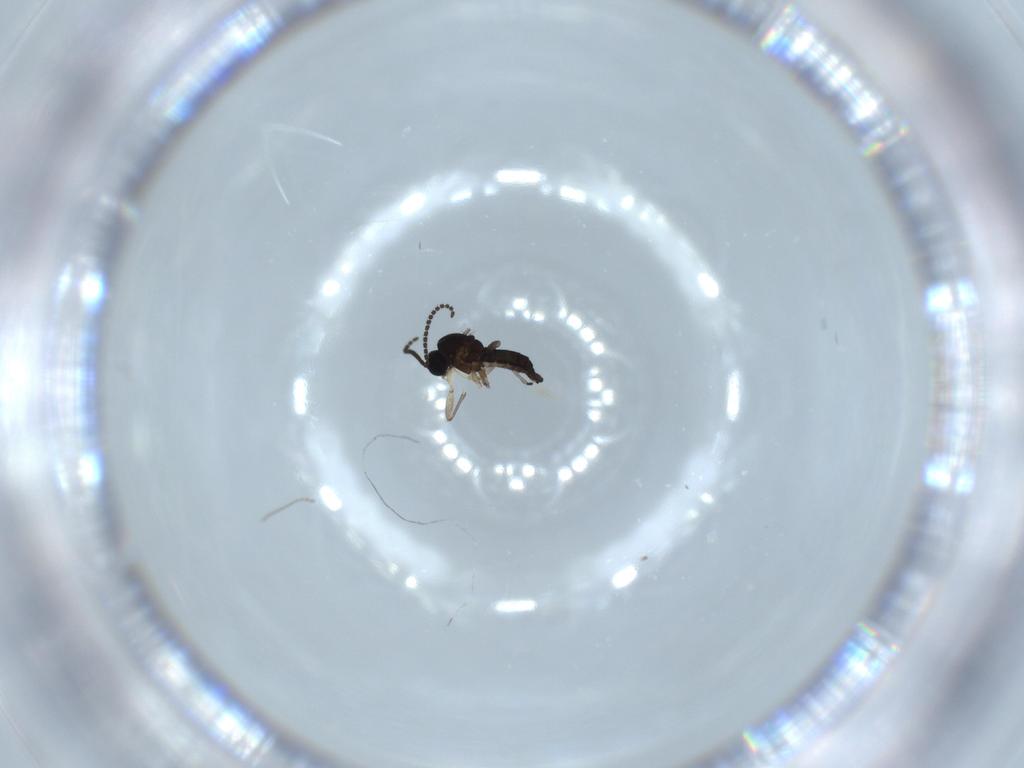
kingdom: Animalia
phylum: Arthropoda
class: Insecta
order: Diptera
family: Sciaridae
